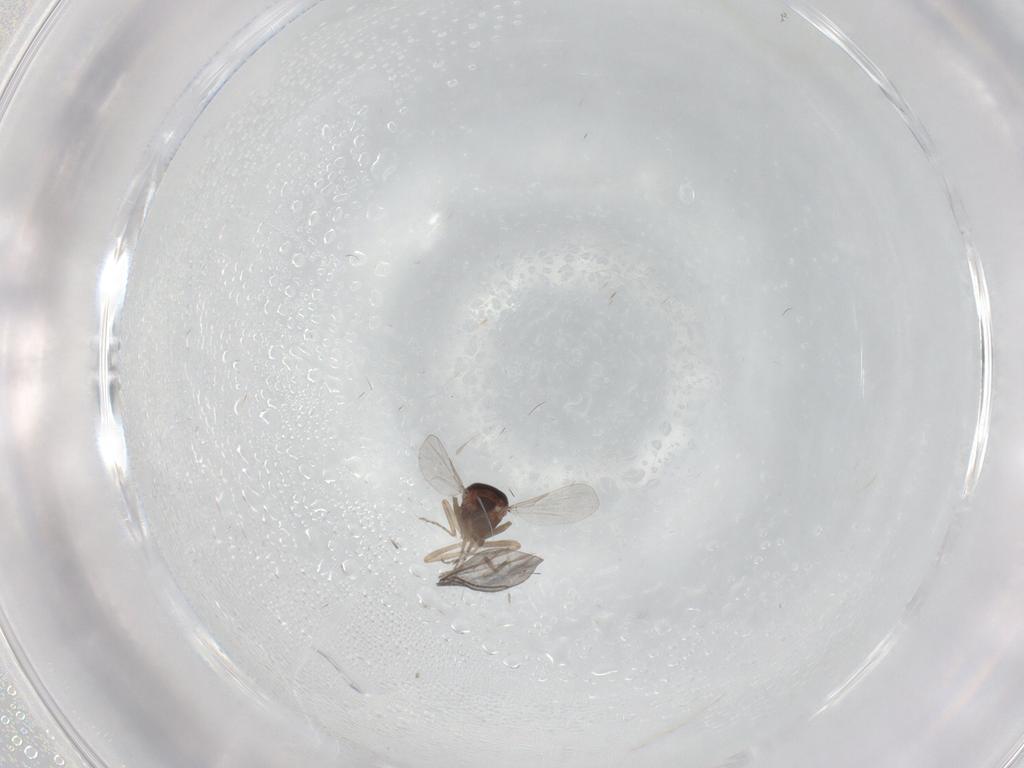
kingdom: Animalia
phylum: Arthropoda
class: Insecta
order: Diptera
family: Ceratopogonidae
